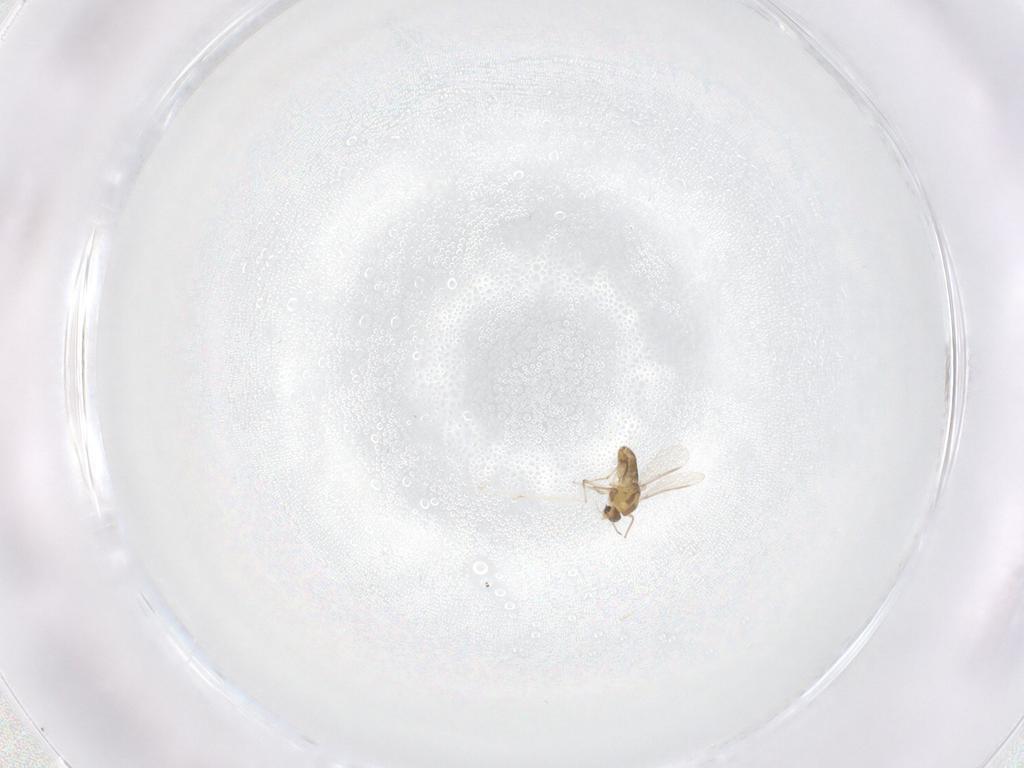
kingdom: Animalia
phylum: Arthropoda
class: Insecta
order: Diptera
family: Chironomidae
